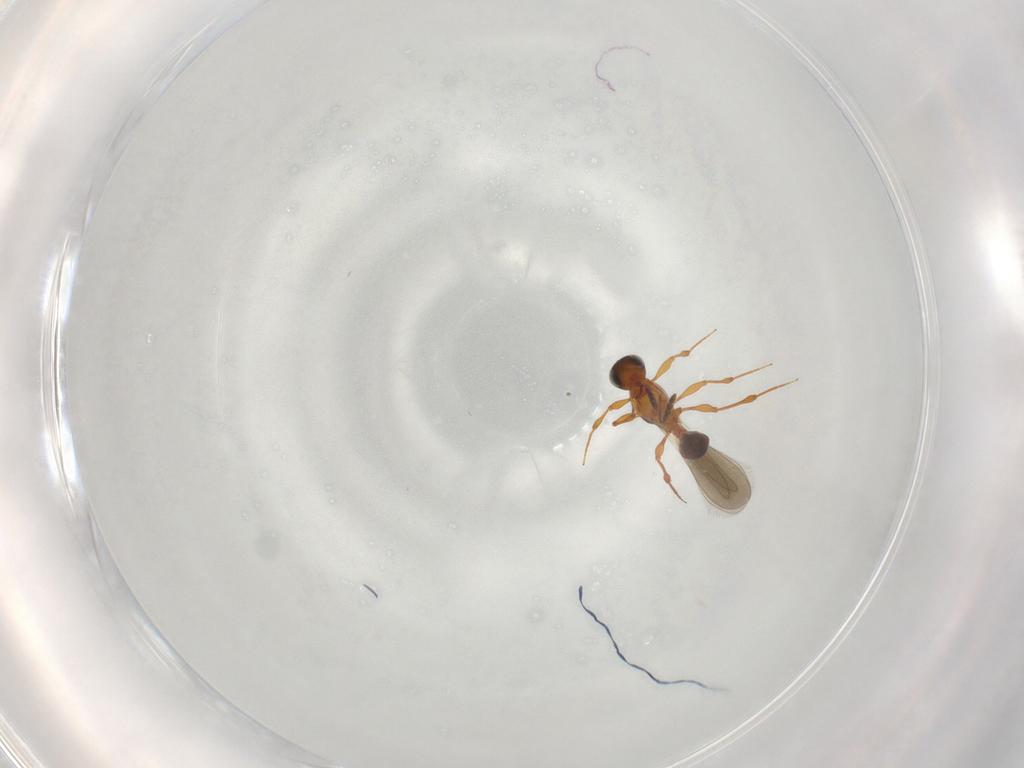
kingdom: Animalia
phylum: Arthropoda
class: Insecta
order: Hymenoptera
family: Platygastridae
